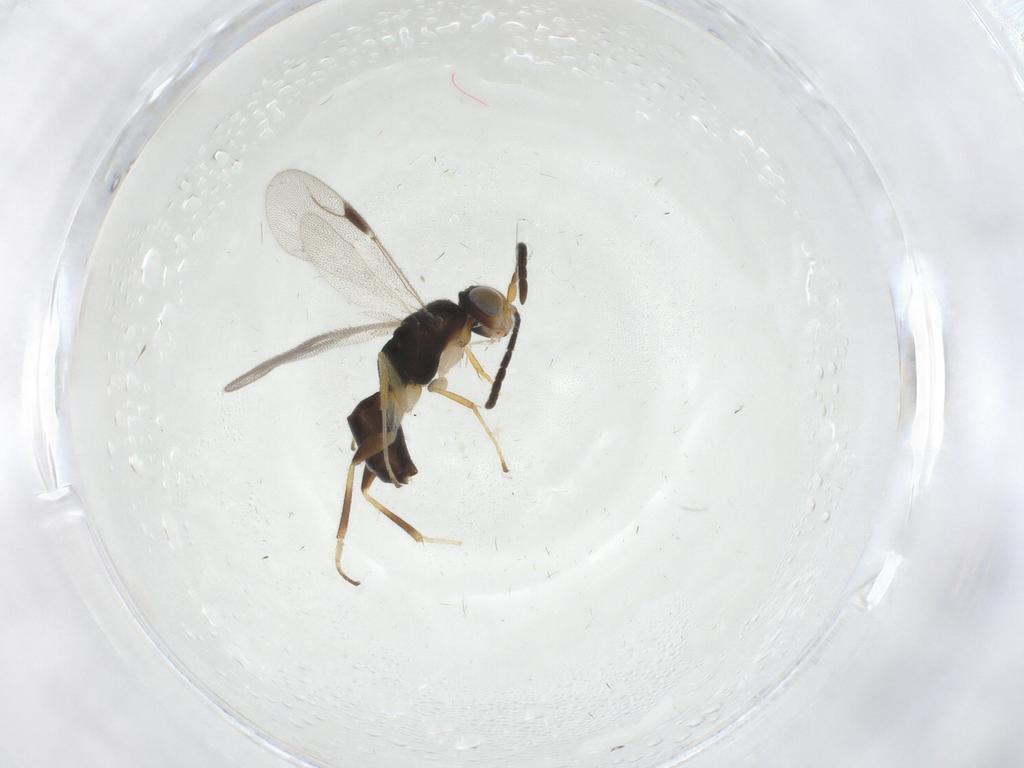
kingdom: Animalia
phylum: Arthropoda
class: Insecta
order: Hymenoptera
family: Dryinidae
